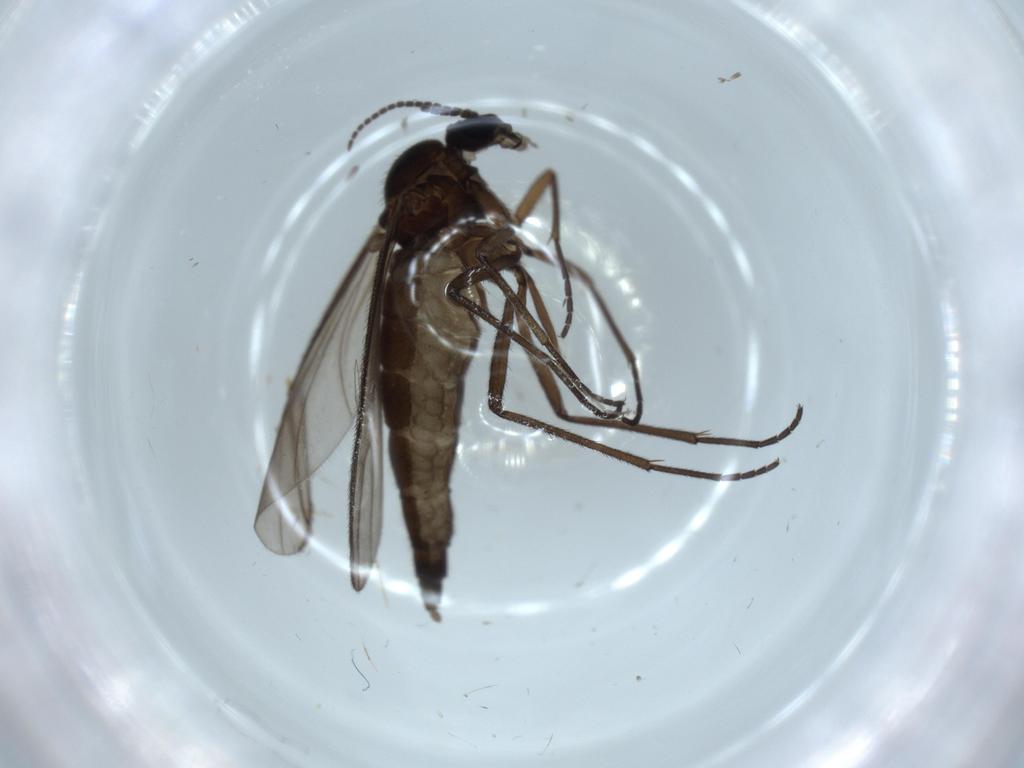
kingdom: Animalia
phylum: Arthropoda
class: Insecta
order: Diptera
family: Sciaridae
